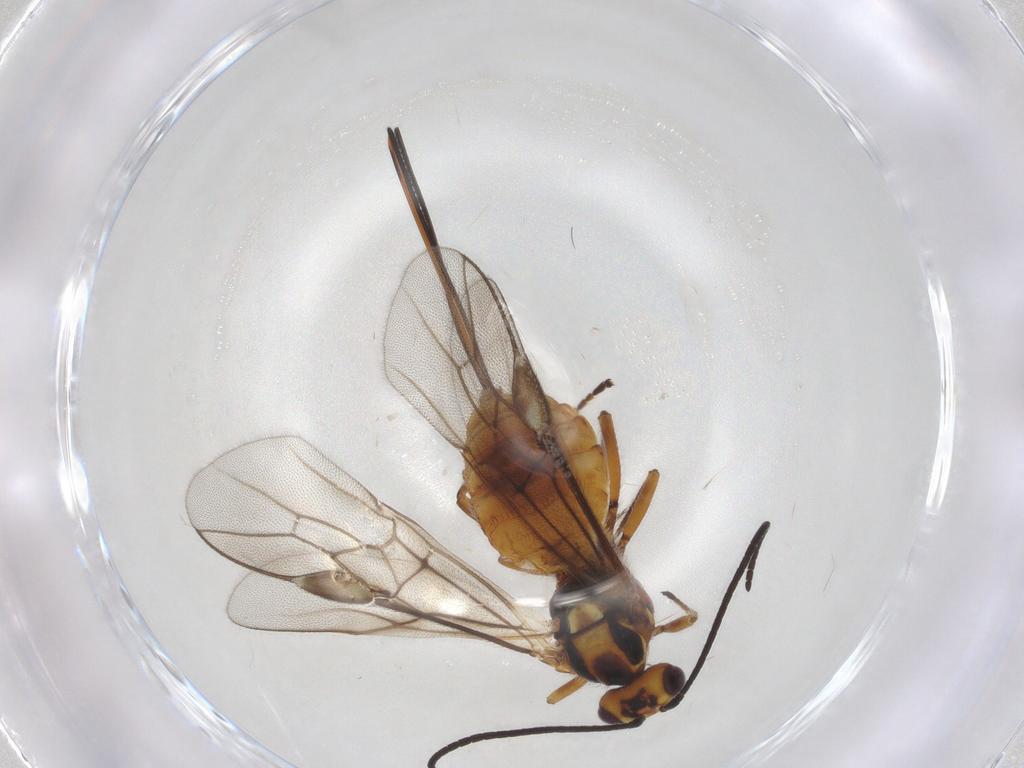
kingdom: Animalia
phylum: Arthropoda
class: Insecta
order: Hymenoptera
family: Braconidae
